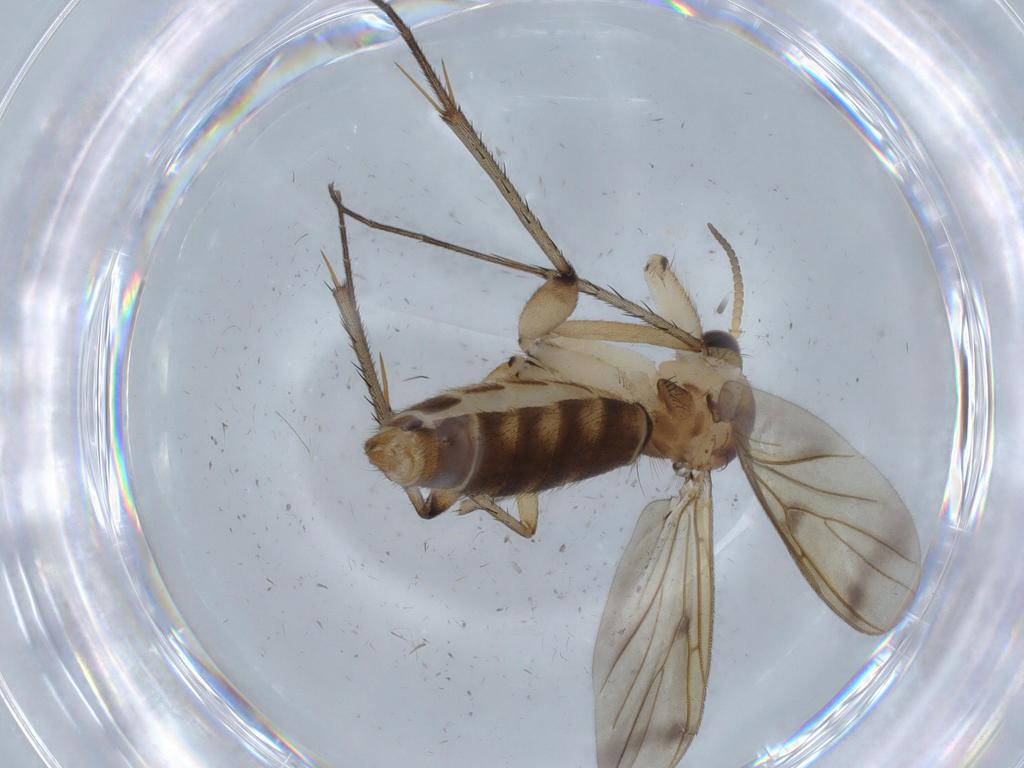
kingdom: Animalia
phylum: Arthropoda
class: Insecta
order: Diptera
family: Mycetophilidae
